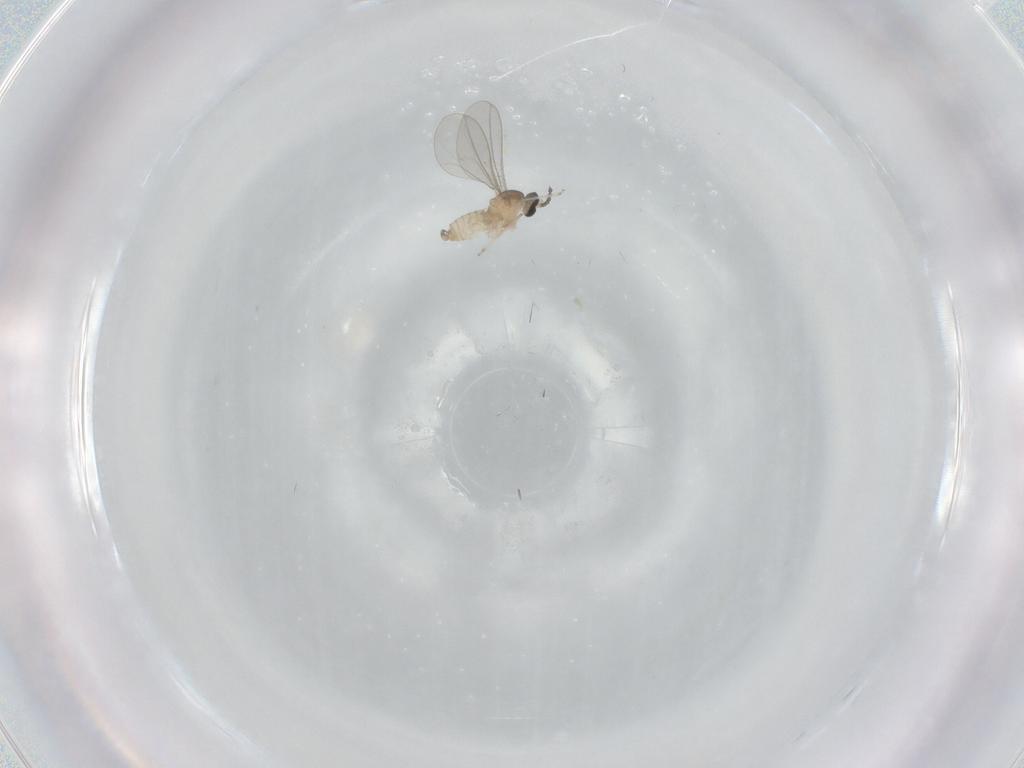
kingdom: Animalia
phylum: Arthropoda
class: Insecta
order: Diptera
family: Cecidomyiidae
